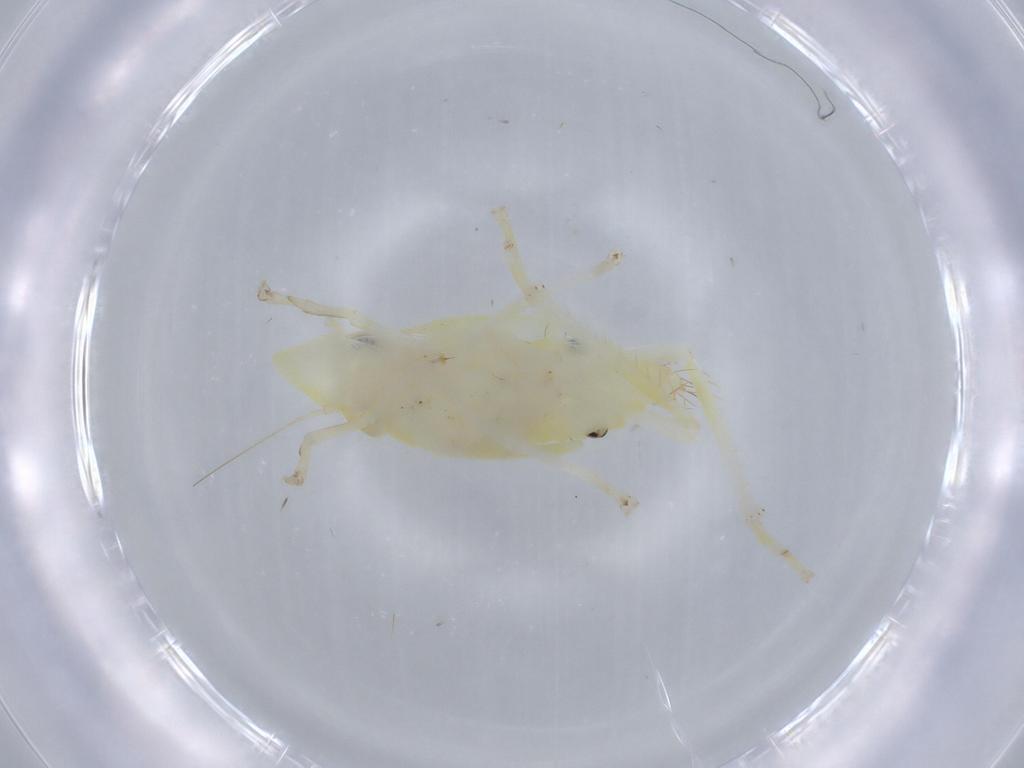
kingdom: Animalia
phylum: Arthropoda
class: Insecta
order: Hemiptera
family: Cicadellidae
